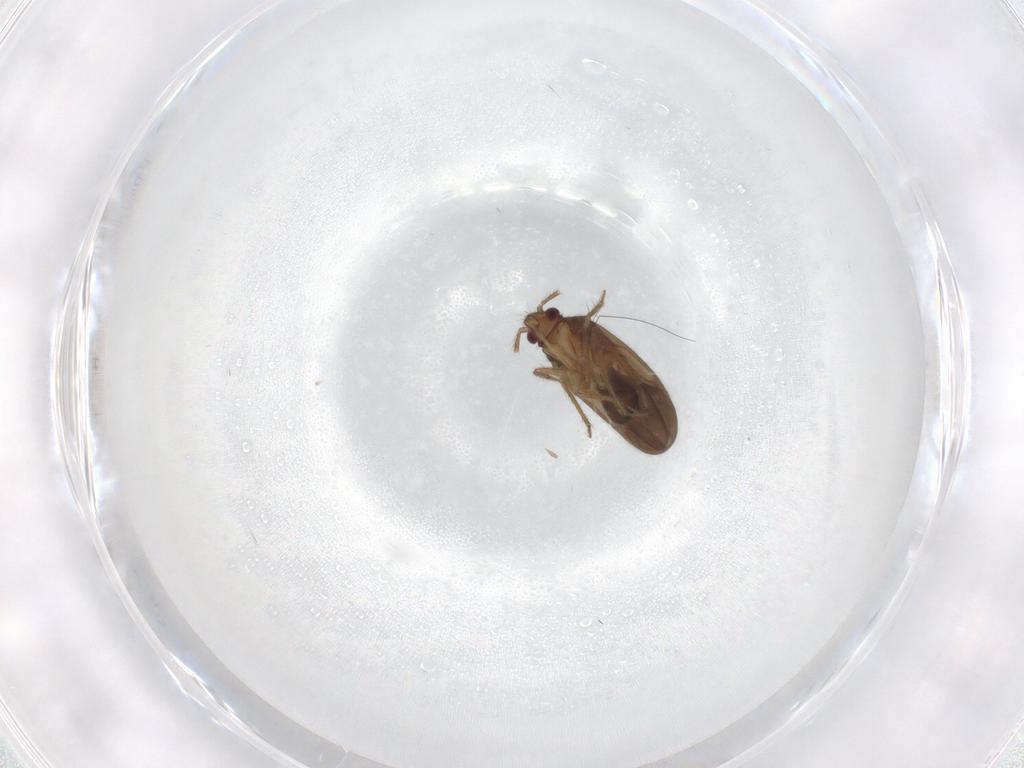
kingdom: Animalia
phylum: Arthropoda
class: Insecta
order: Hemiptera
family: Ceratocombidae
